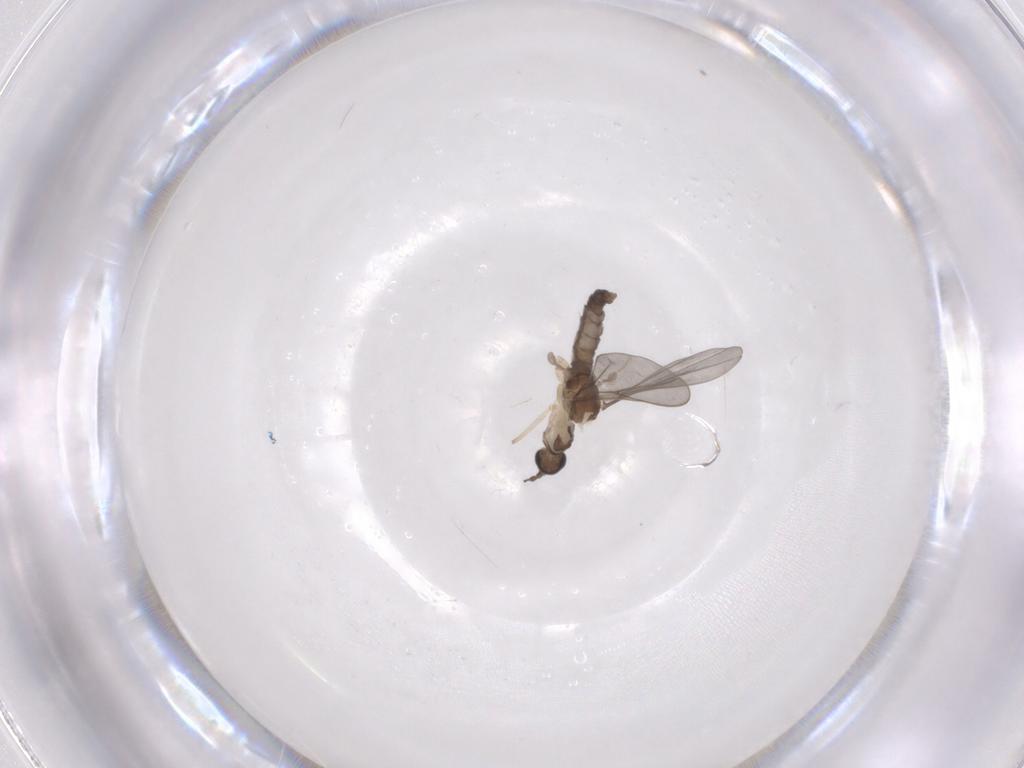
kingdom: Animalia
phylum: Arthropoda
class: Insecta
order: Diptera
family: Cecidomyiidae
